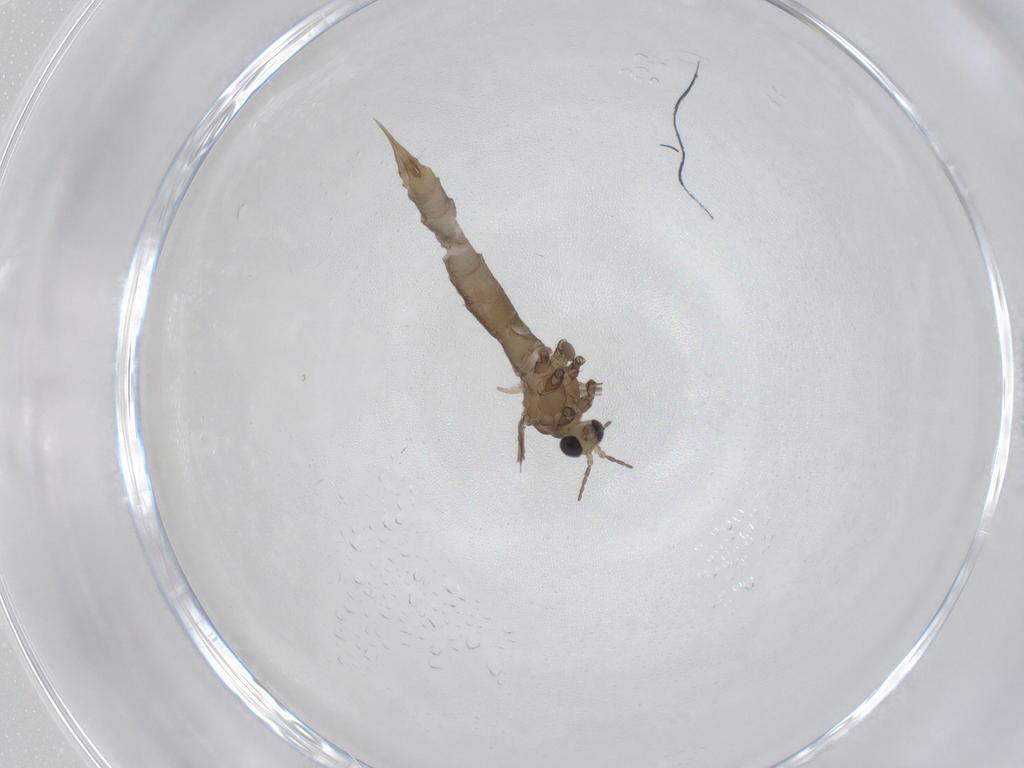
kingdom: Animalia
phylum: Arthropoda
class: Insecta
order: Diptera
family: Limoniidae
